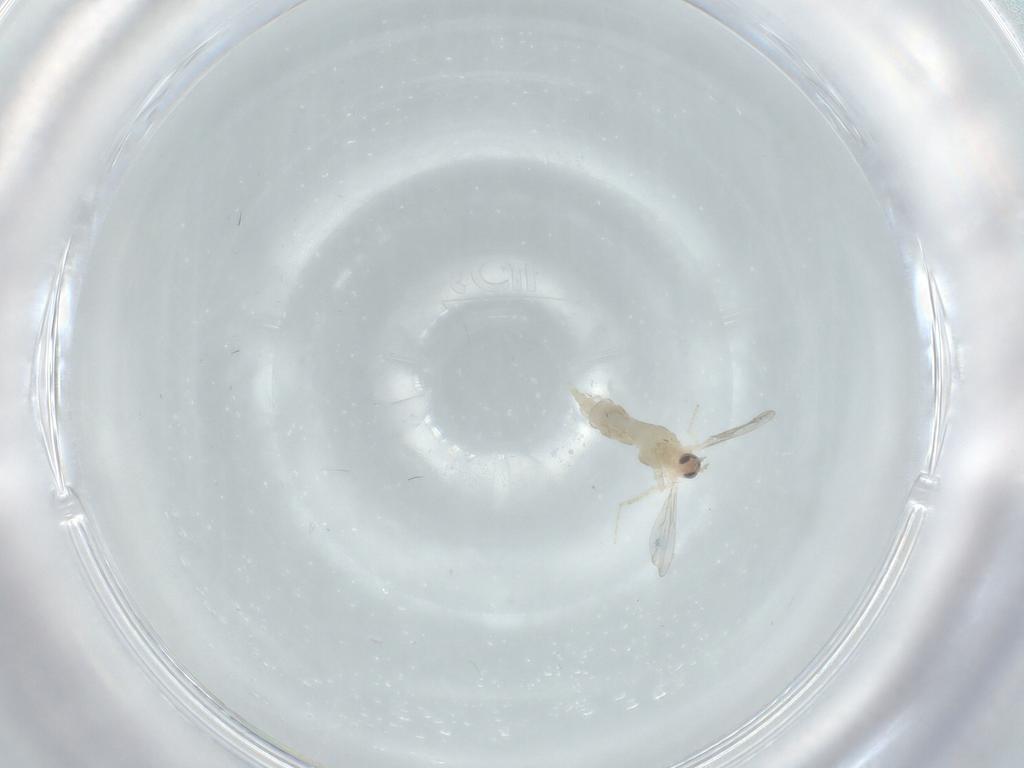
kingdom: Animalia
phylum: Arthropoda
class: Insecta
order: Diptera
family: Cecidomyiidae
